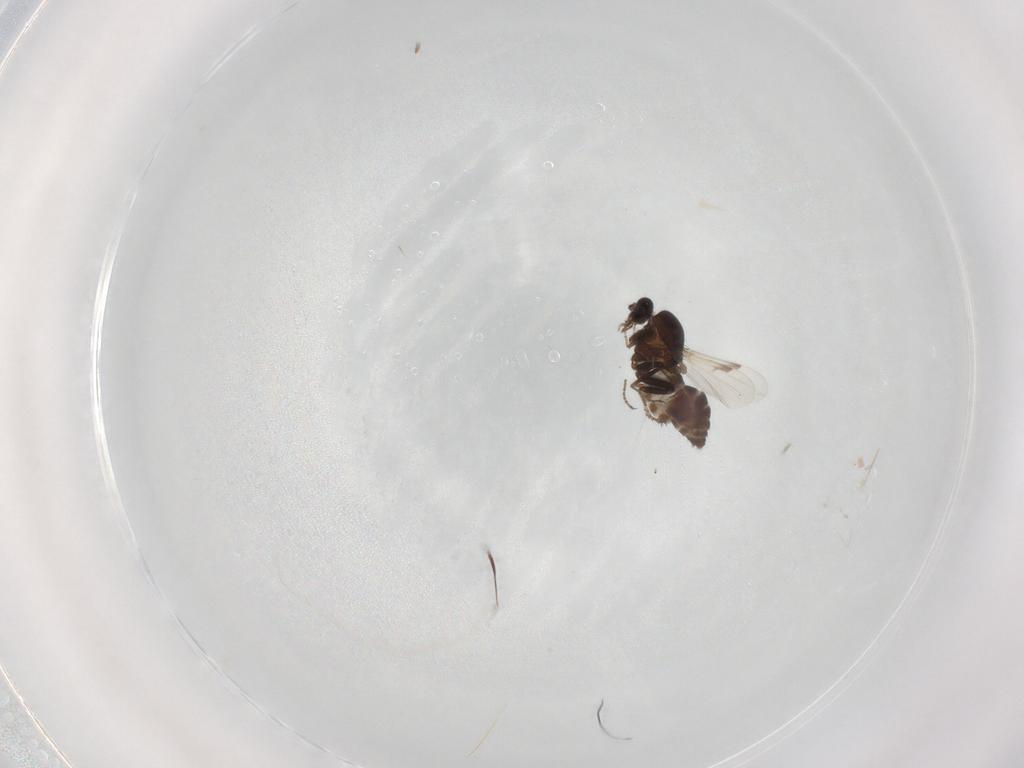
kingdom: Animalia
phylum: Arthropoda
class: Insecta
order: Diptera
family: Ceratopogonidae
